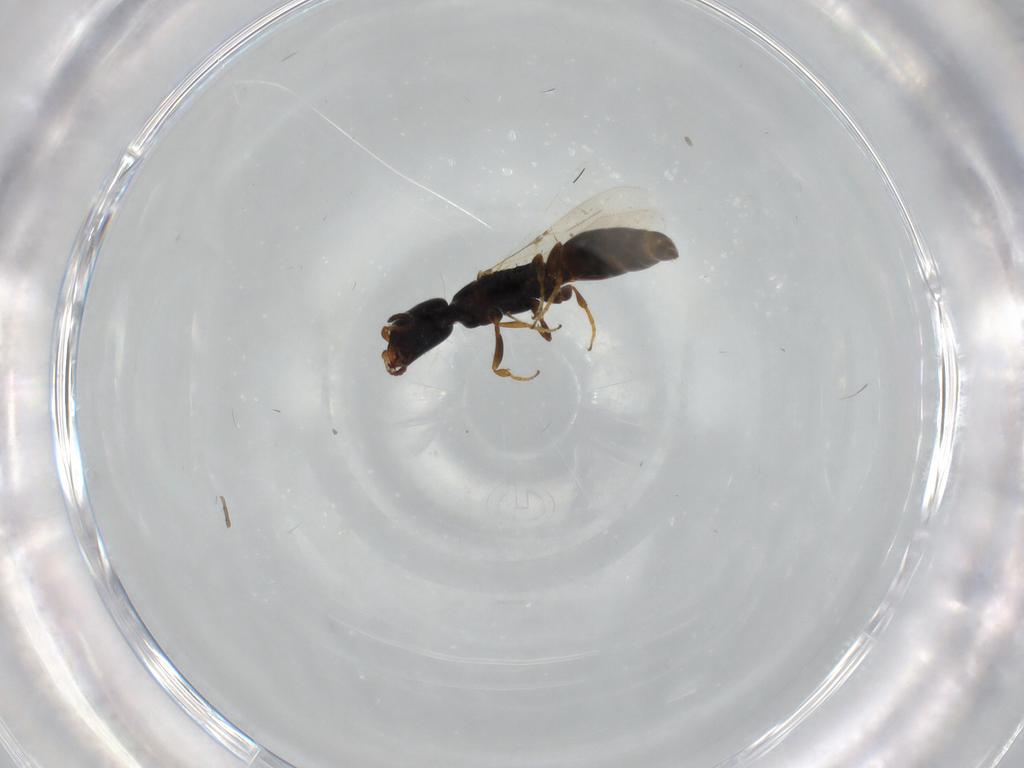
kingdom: Animalia
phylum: Arthropoda
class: Insecta
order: Hymenoptera
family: Bethylidae
